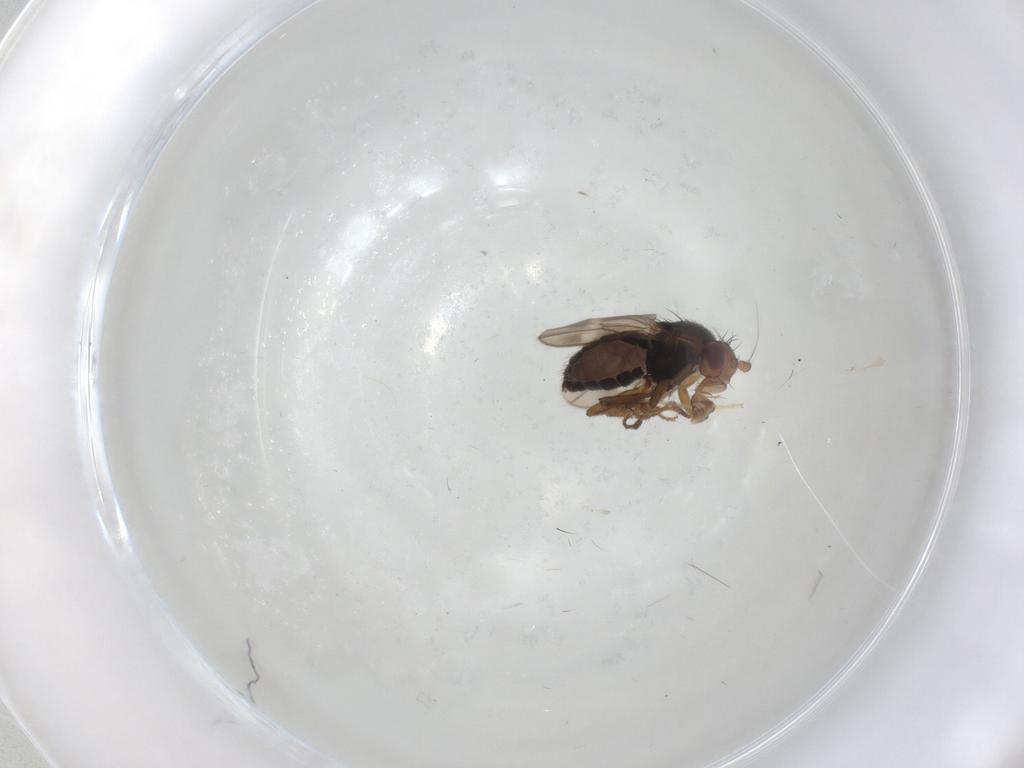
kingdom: Animalia
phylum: Arthropoda
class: Insecta
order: Diptera
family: Sphaeroceridae
